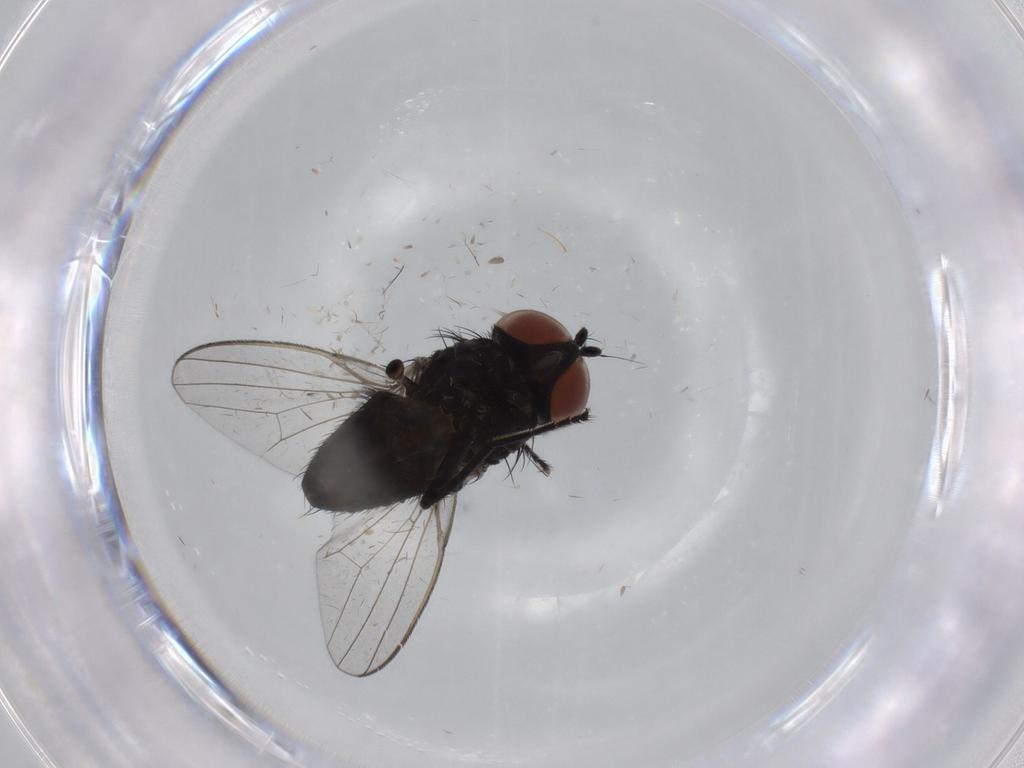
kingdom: Animalia
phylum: Arthropoda
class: Insecta
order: Diptera
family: Milichiidae
